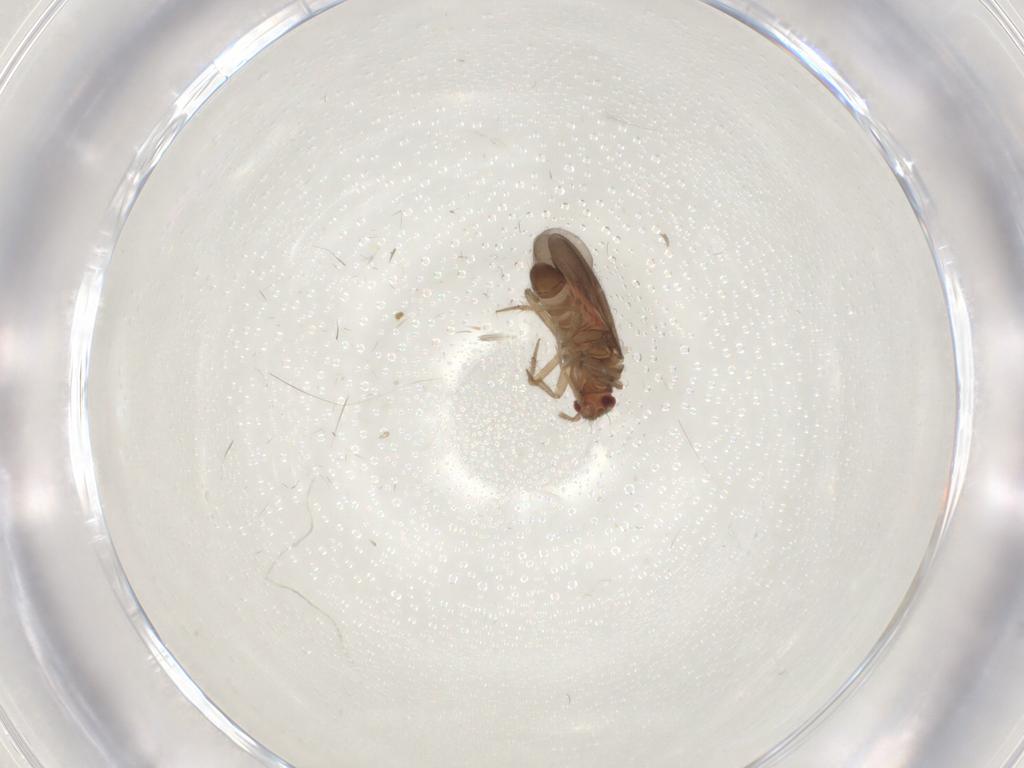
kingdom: Animalia
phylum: Arthropoda
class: Insecta
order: Hemiptera
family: Ceratocombidae
